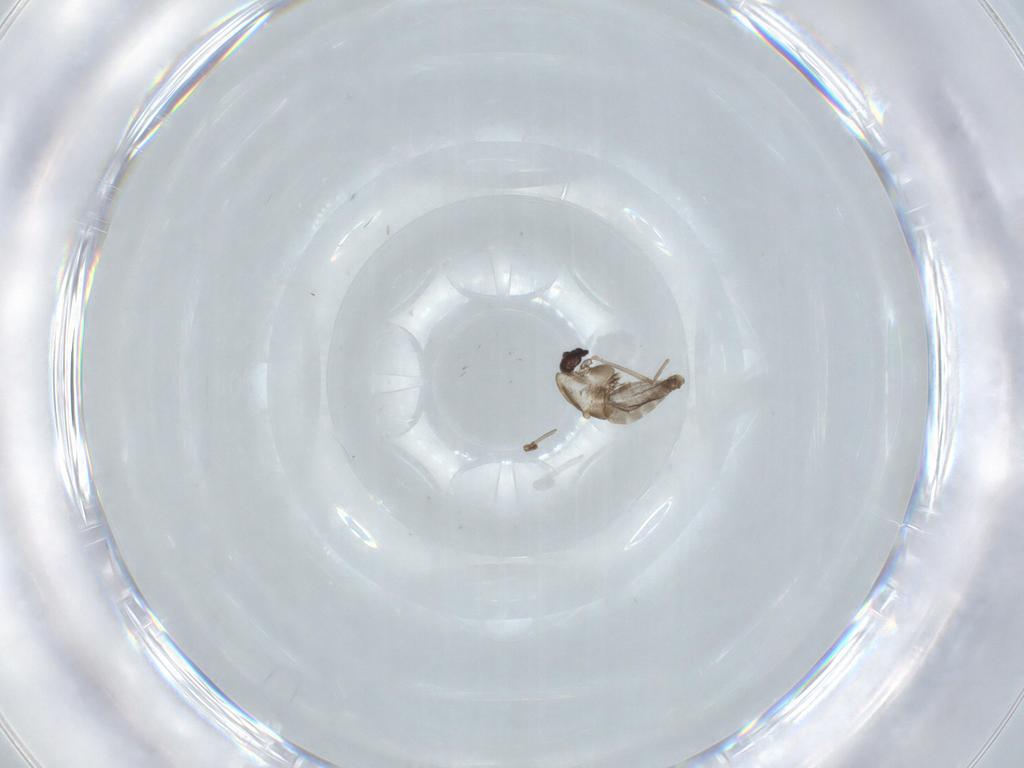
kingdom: Animalia
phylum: Arthropoda
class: Insecta
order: Diptera
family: Chironomidae
